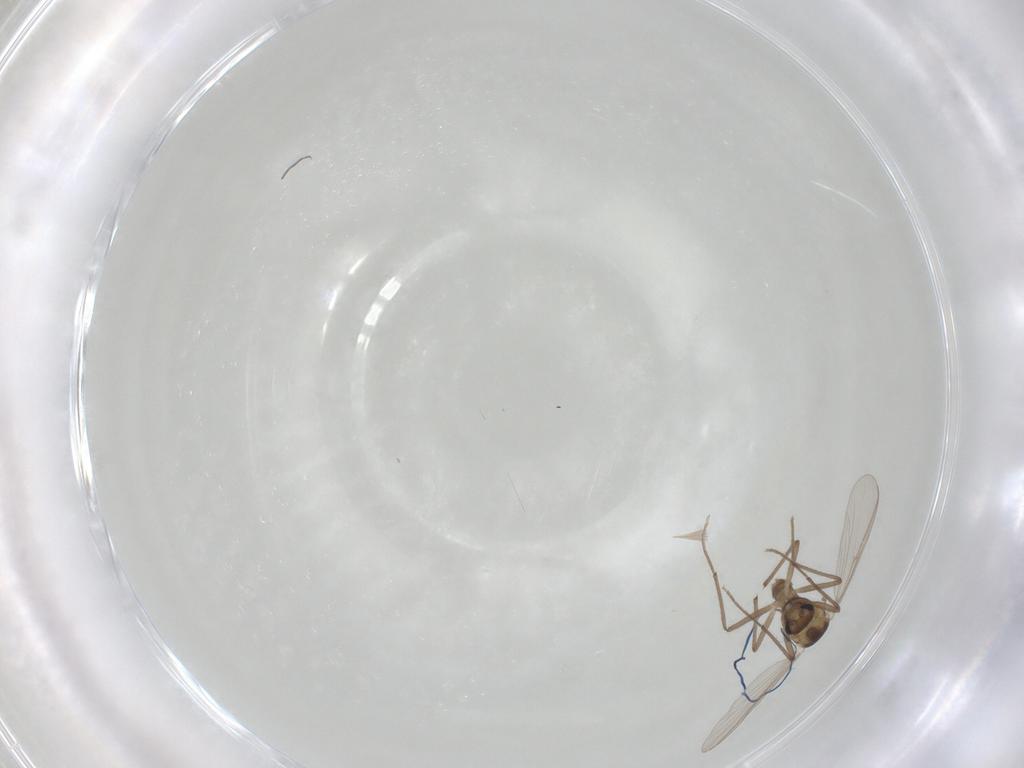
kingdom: Animalia
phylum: Arthropoda
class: Insecta
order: Diptera
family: Chironomidae
